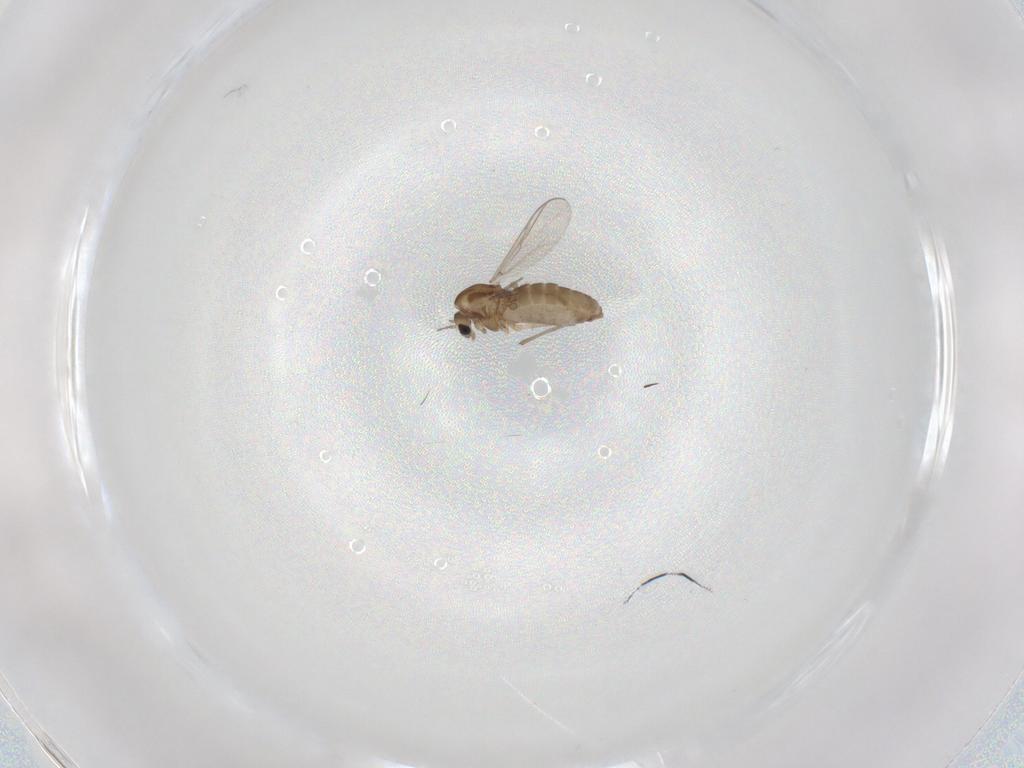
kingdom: Animalia
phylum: Arthropoda
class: Insecta
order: Diptera
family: Chironomidae
